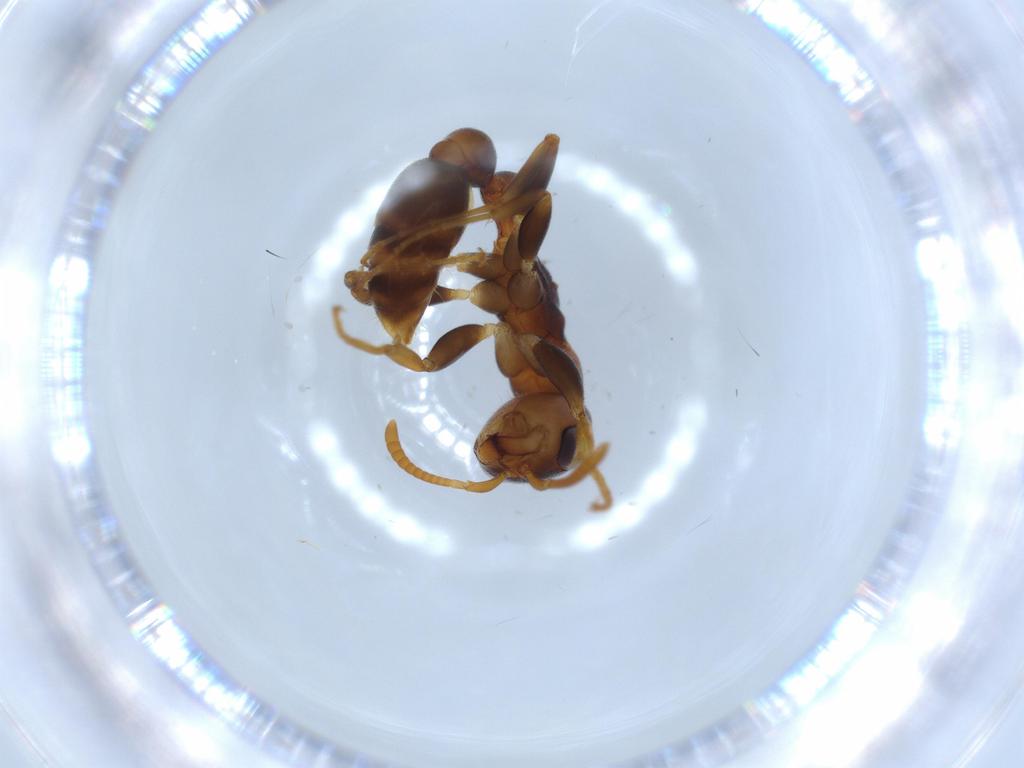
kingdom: Animalia
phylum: Arthropoda
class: Insecta
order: Hymenoptera
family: Formicidae
